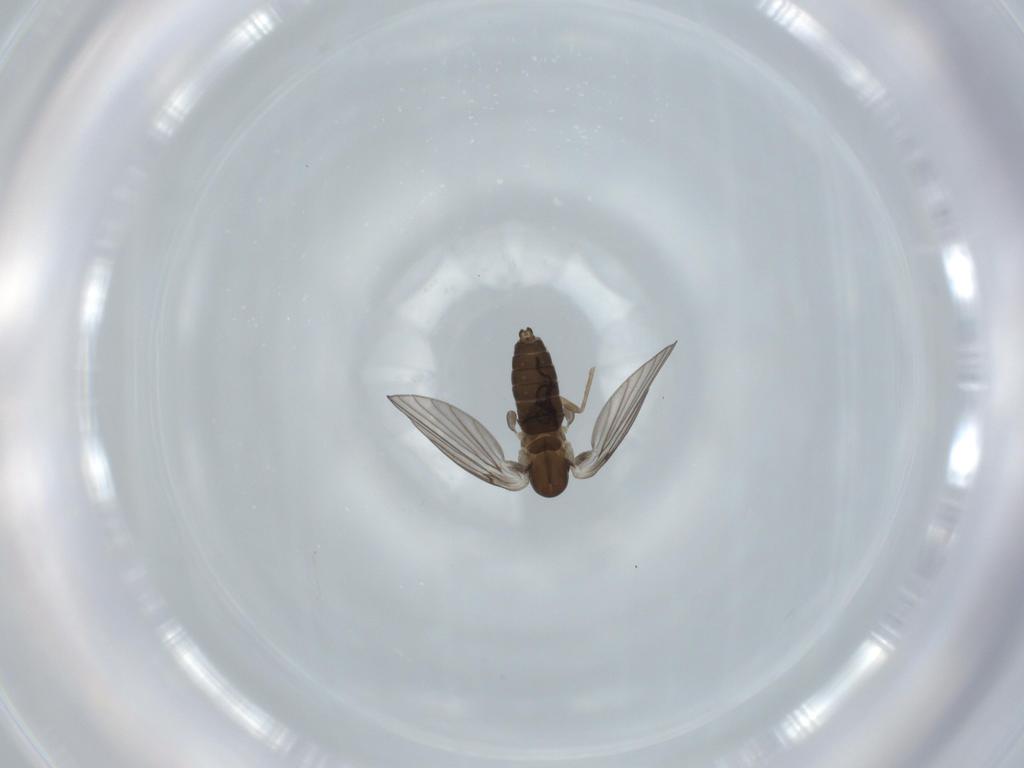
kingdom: Animalia
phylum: Arthropoda
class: Insecta
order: Diptera
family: Psychodidae
